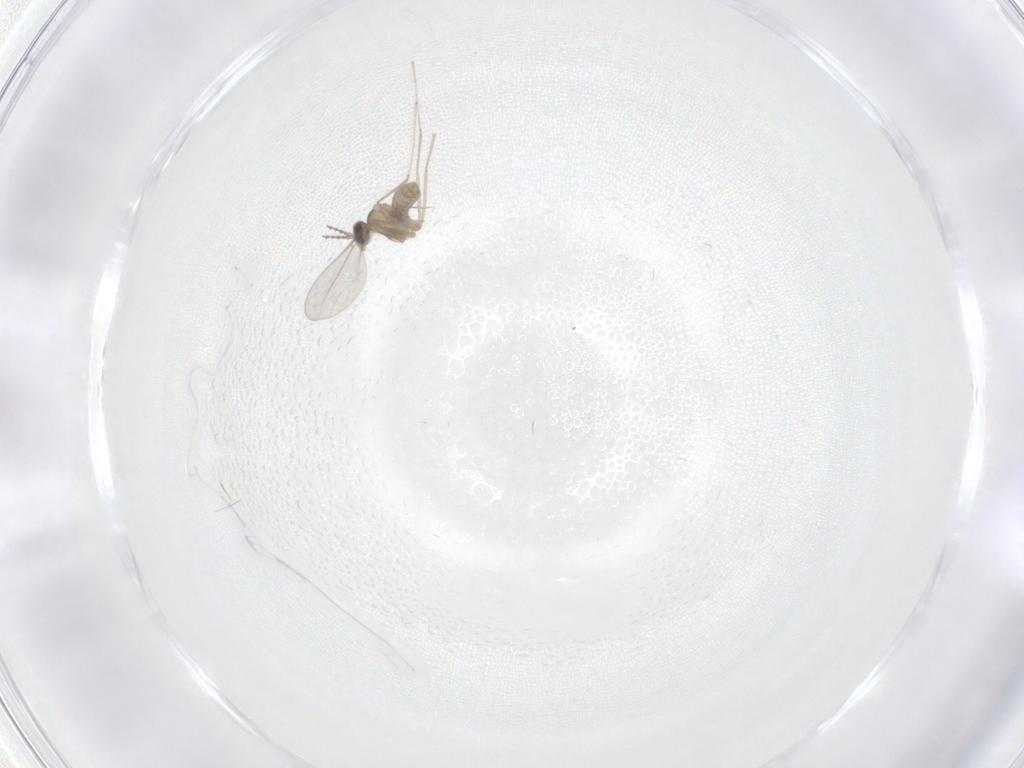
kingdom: Animalia
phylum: Arthropoda
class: Insecta
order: Diptera
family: Cecidomyiidae
